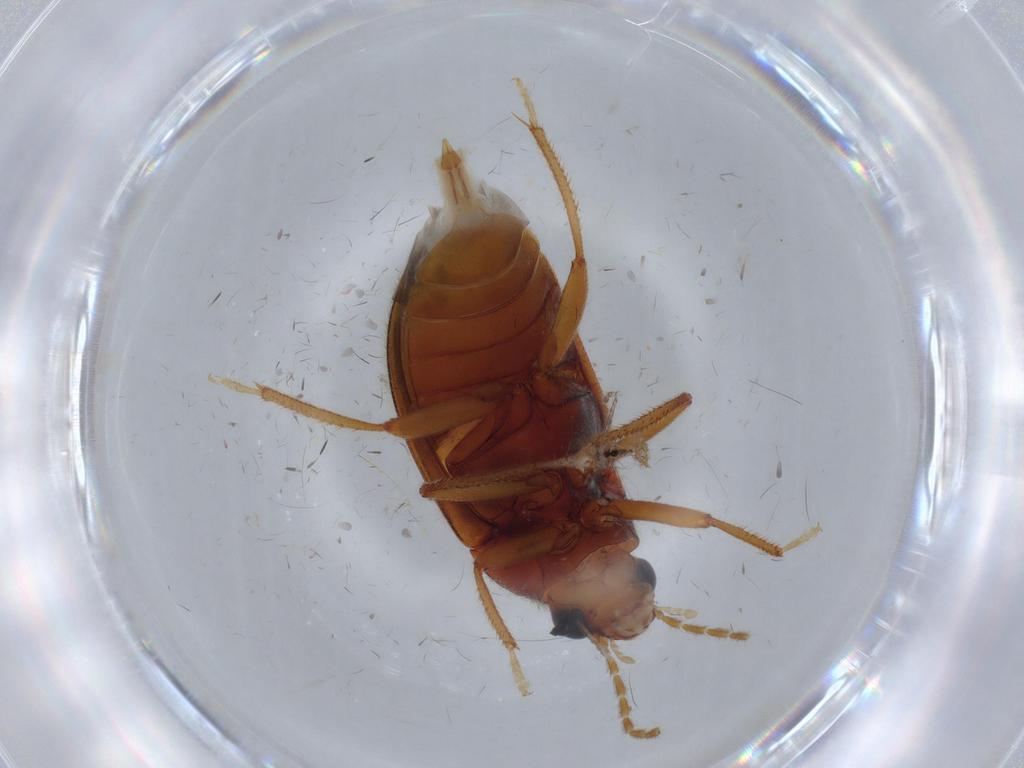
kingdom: Animalia
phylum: Arthropoda
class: Insecta
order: Coleoptera
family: Ptilodactylidae
